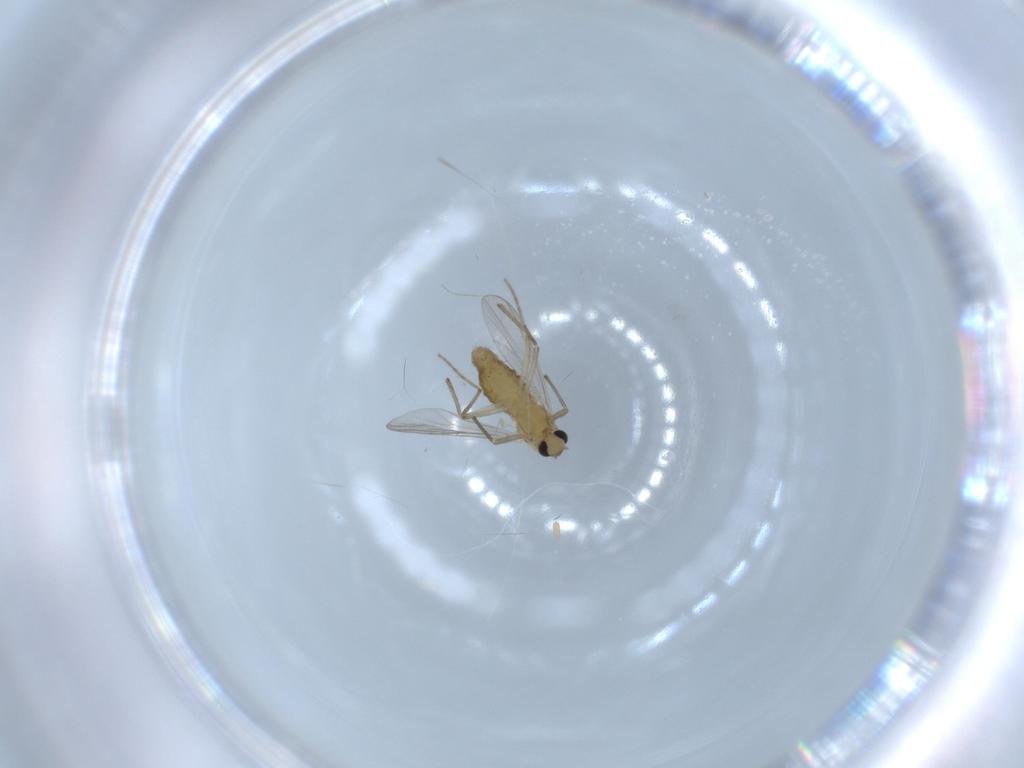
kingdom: Animalia
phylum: Arthropoda
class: Insecta
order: Diptera
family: Chironomidae
